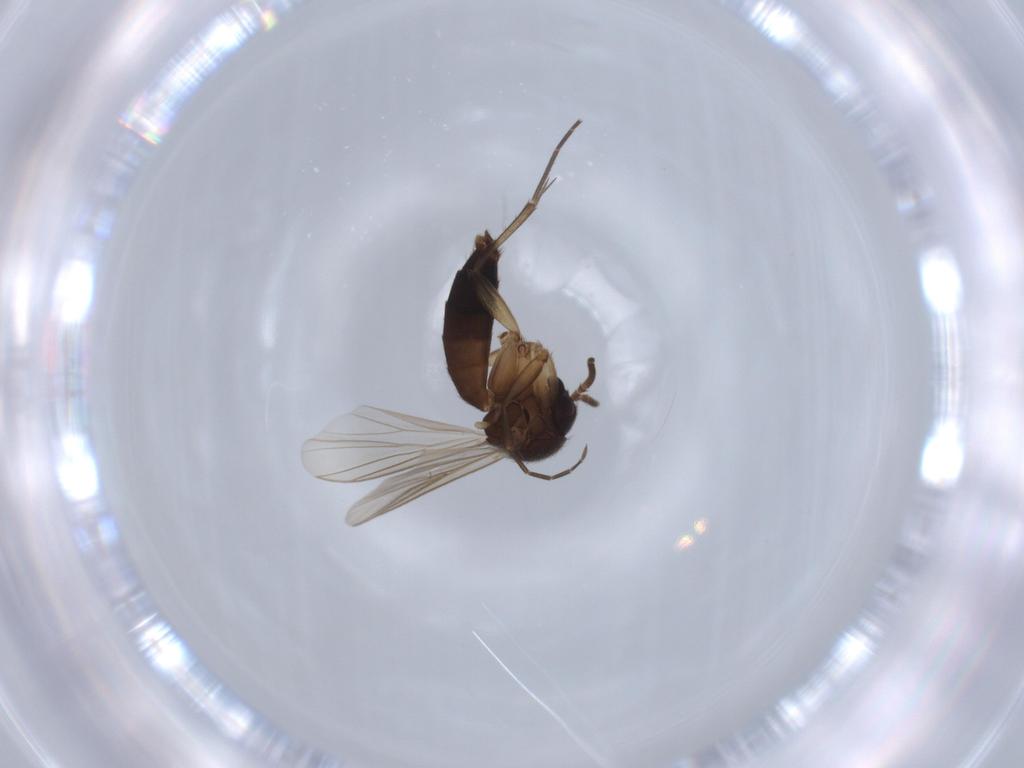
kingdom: Animalia
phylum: Arthropoda
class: Insecta
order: Diptera
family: Mycetophilidae
